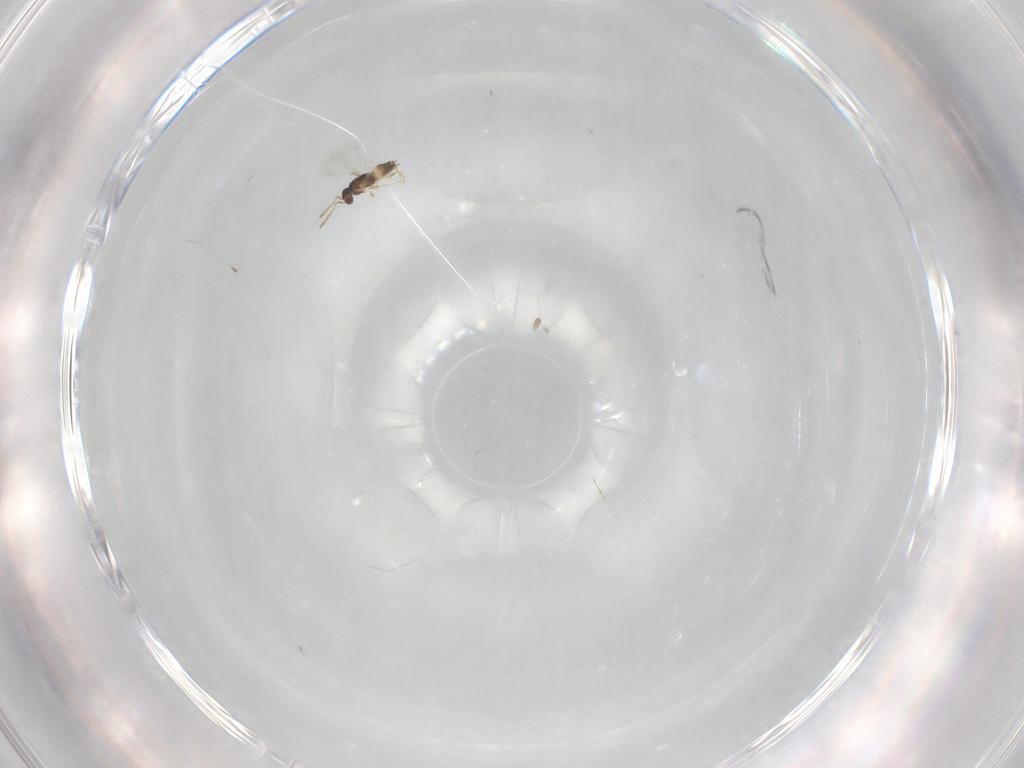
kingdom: Animalia
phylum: Arthropoda
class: Insecta
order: Hymenoptera
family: Mymaridae
